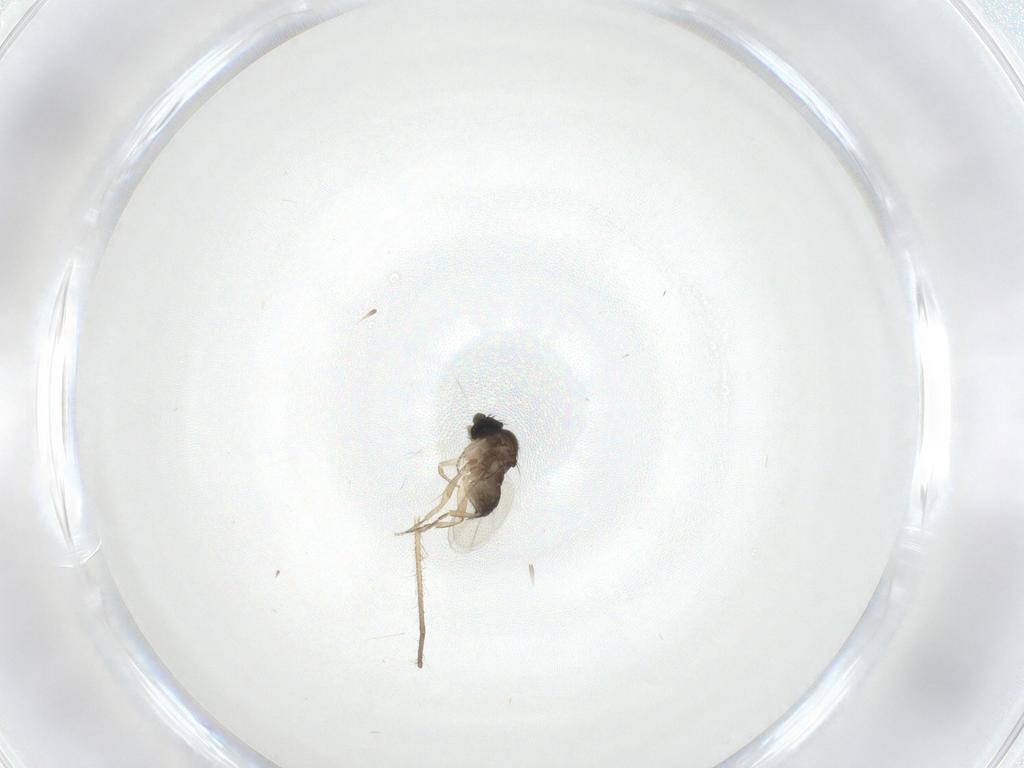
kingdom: Animalia
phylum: Arthropoda
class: Insecta
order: Diptera
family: Phoridae
